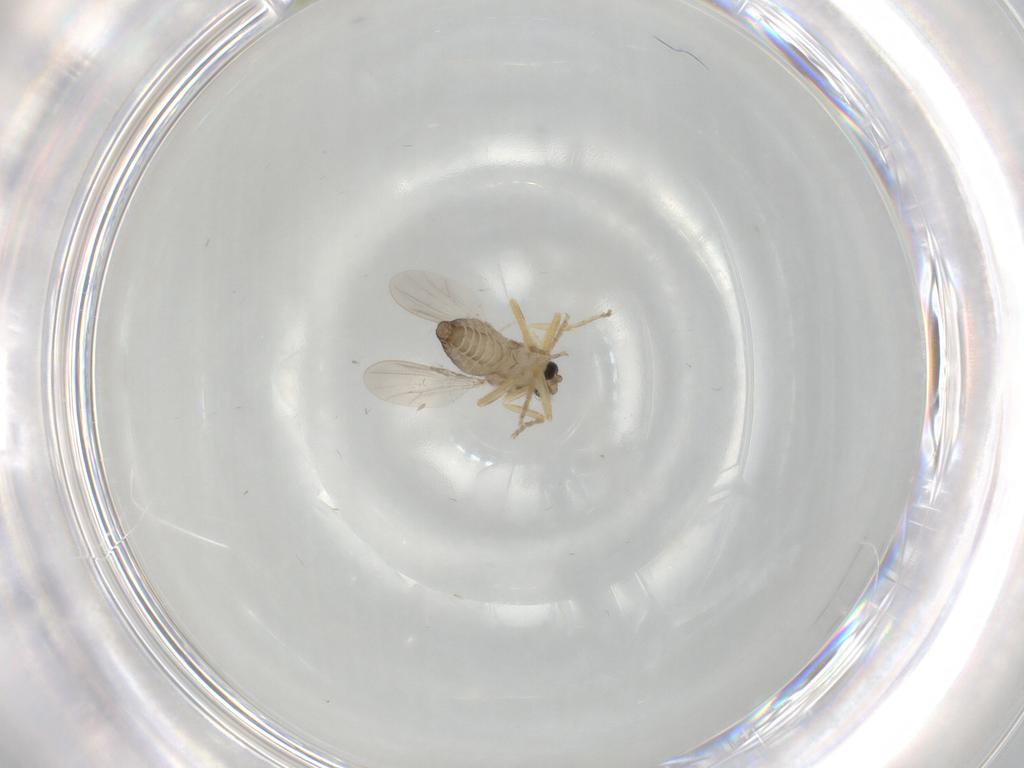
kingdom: Animalia
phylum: Arthropoda
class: Insecta
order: Diptera
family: Ceratopogonidae
